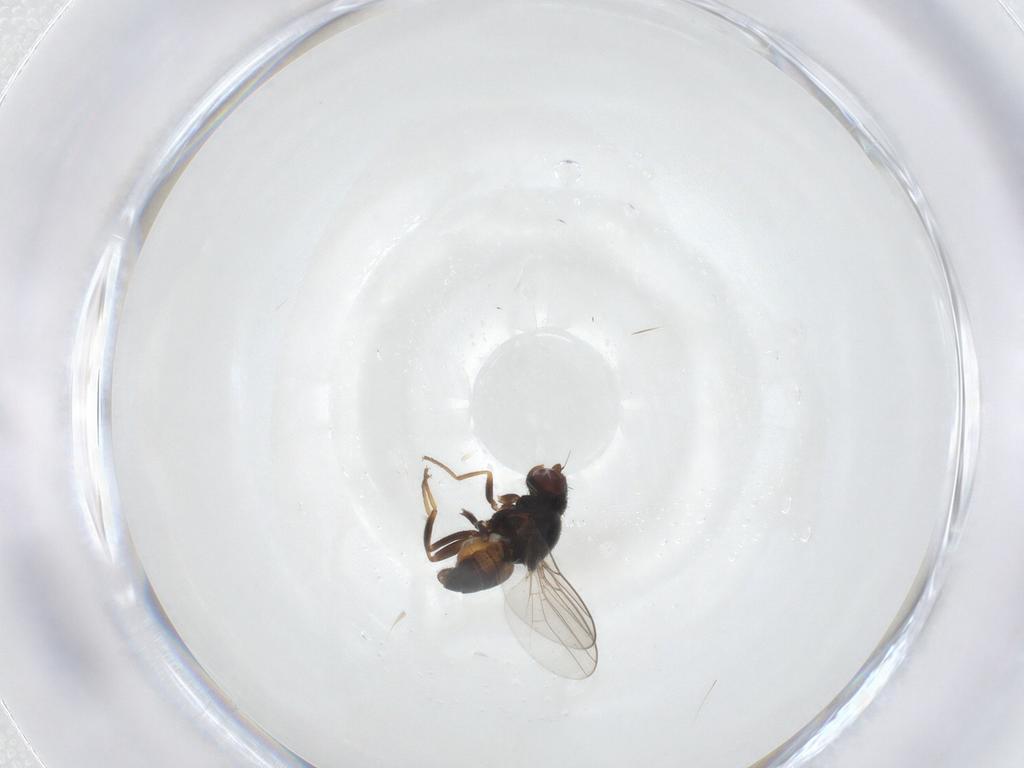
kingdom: Animalia
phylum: Arthropoda
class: Insecta
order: Diptera
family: Chloropidae
